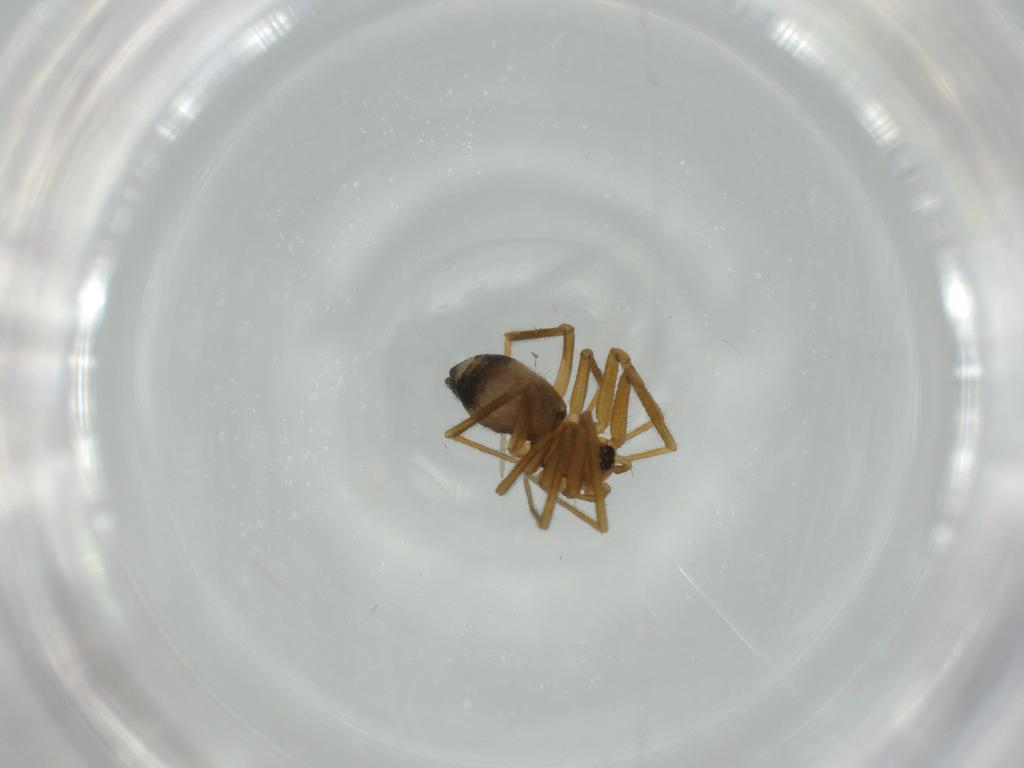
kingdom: Animalia
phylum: Arthropoda
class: Arachnida
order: Araneae
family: Linyphiidae
